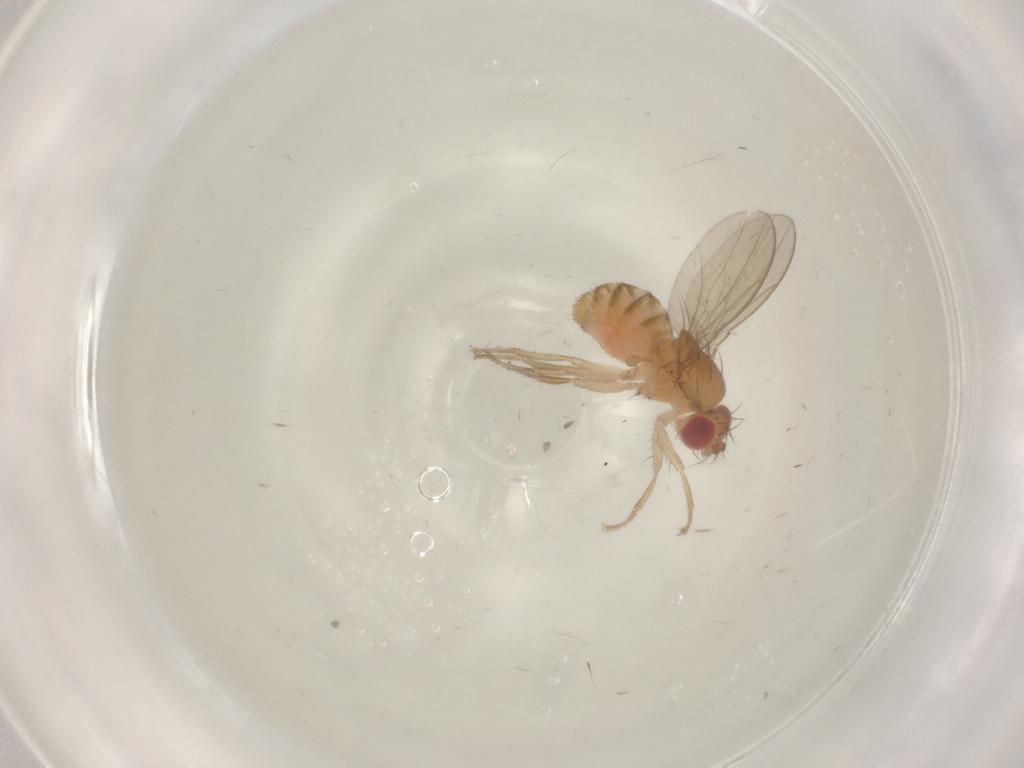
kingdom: Animalia
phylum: Arthropoda
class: Insecta
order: Diptera
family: Drosophilidae
